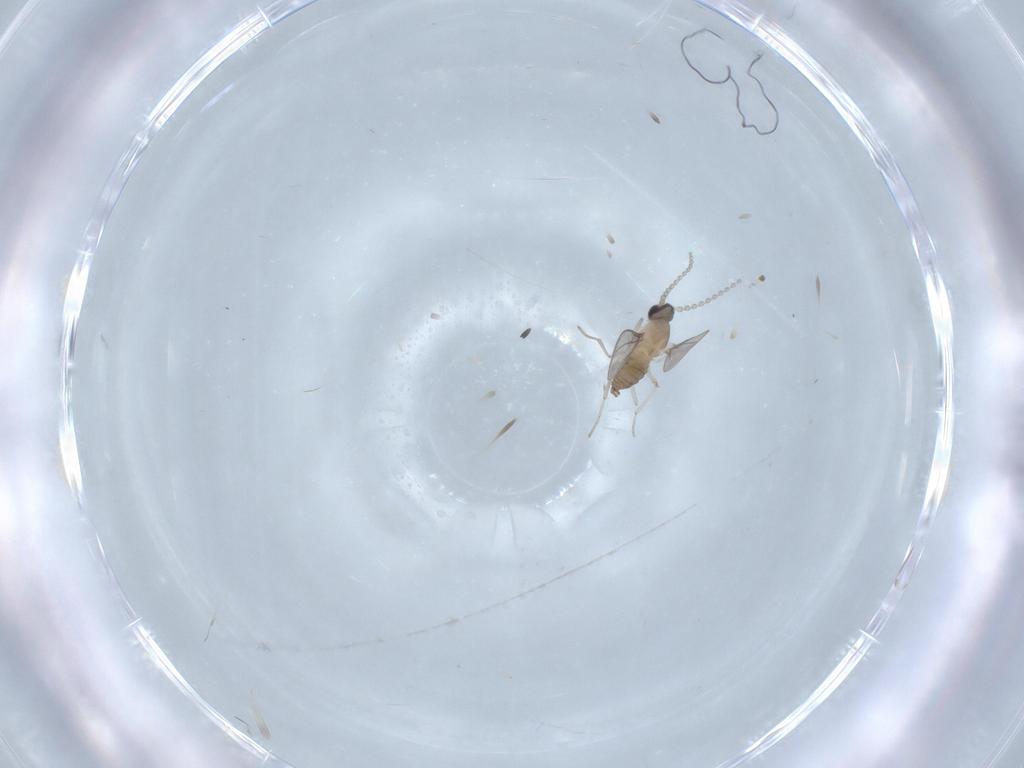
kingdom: Animalia
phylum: Arthropoda
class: Insecta
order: Diptera
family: Cecidomyiidae
